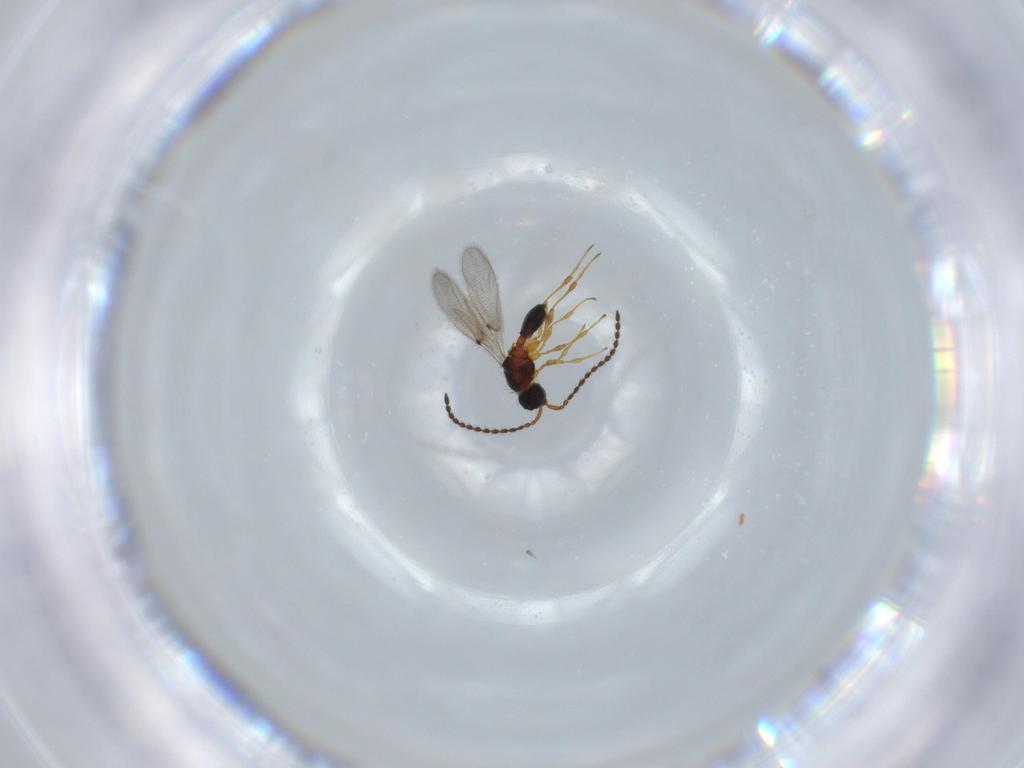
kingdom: Animalia
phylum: Arthropoda
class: Insecta
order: Hymenoptera
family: Diapriidae
